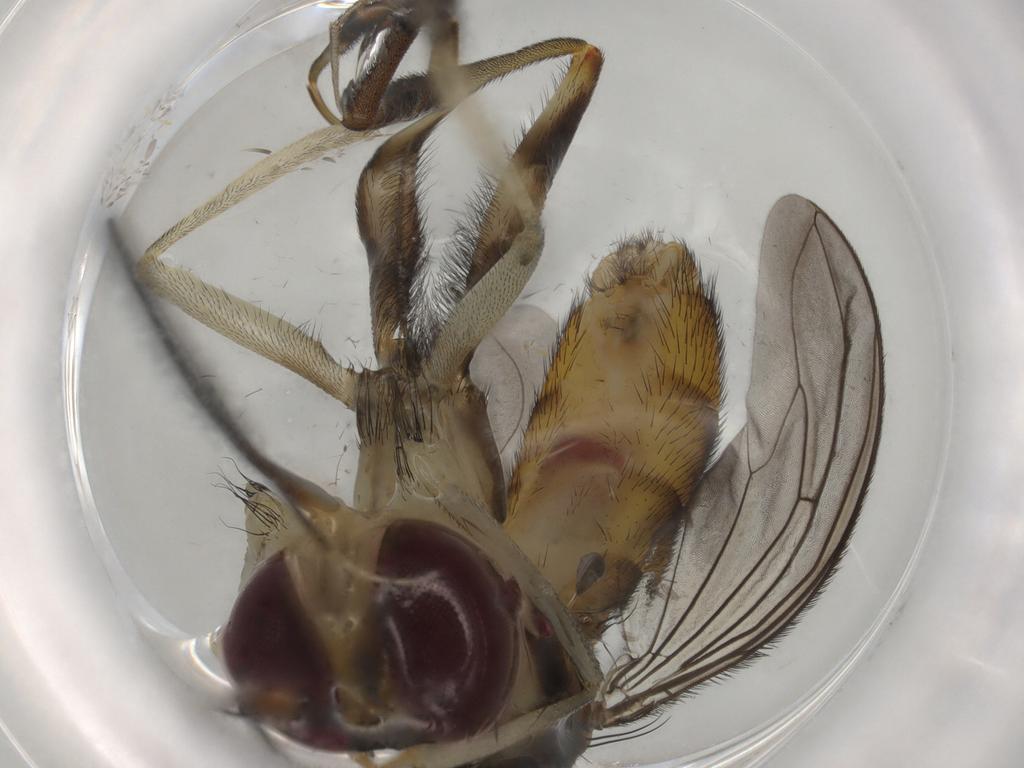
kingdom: Animalia
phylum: Arthropoda
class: Insecta
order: Diptera
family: Conopidae
